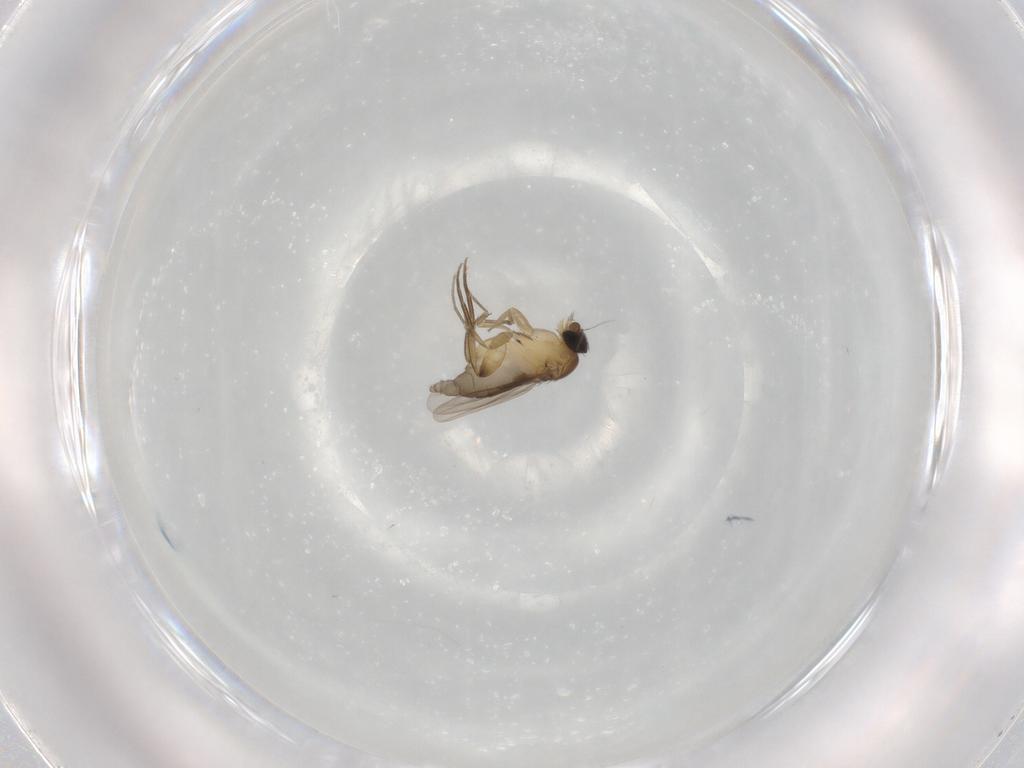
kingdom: Animalia
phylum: Arthropoda
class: Insecta
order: Diptera
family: Phoridae
